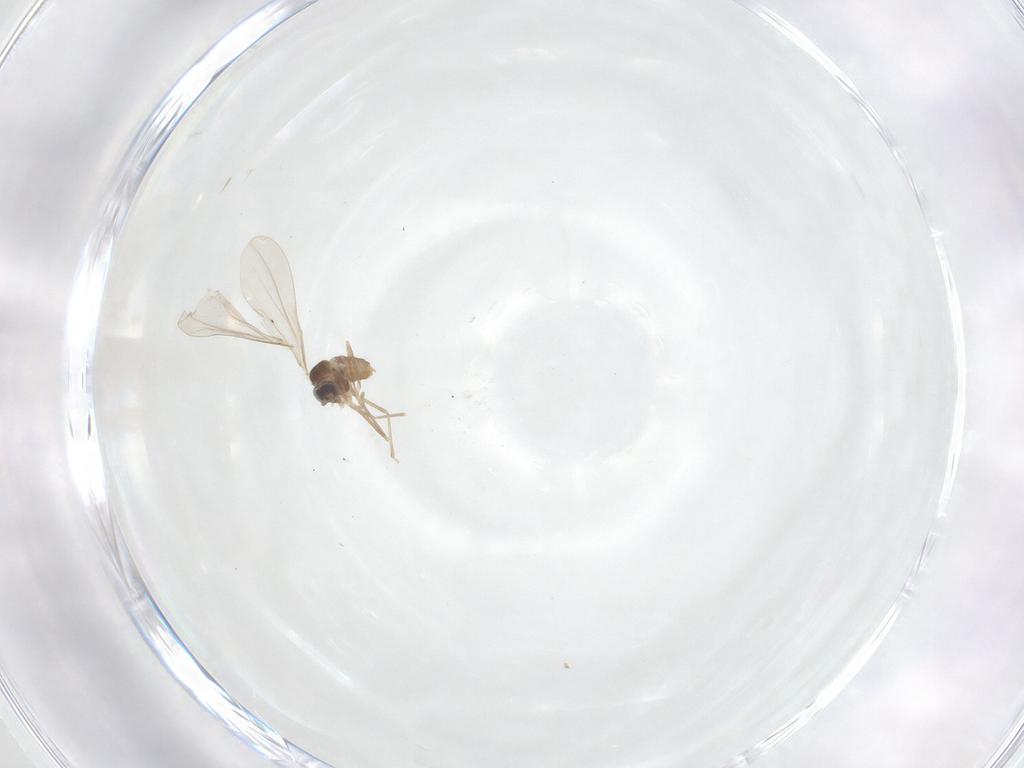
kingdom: Animalia
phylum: Arthropoda
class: Insecta
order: Diptera
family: Cecidomyiidae
